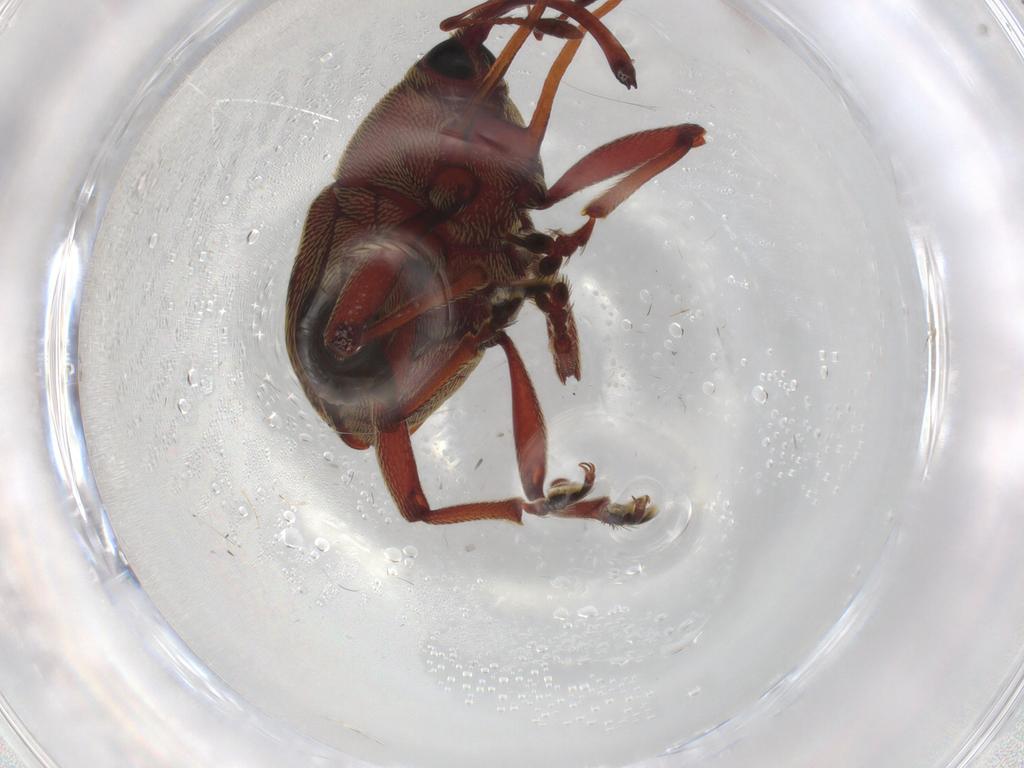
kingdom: Animalia
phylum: Arthropoda
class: Insecta
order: Coleoptera
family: Curculionidae
